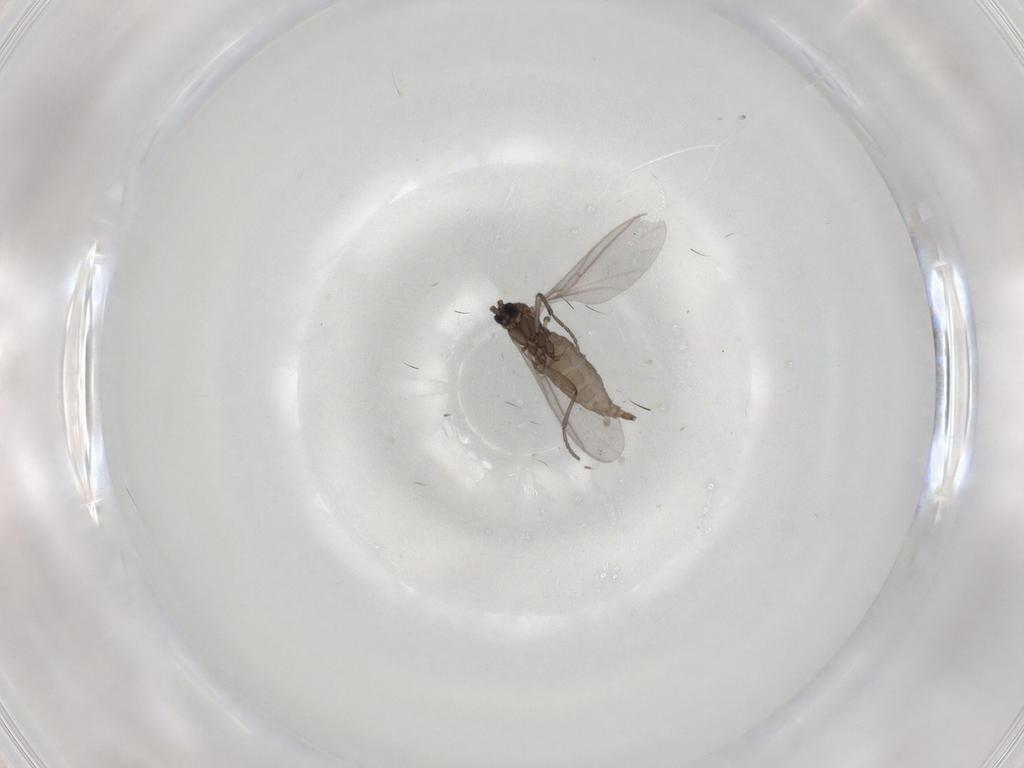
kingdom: Animalia
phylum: Arthropoda
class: Insecta
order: Diptera
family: Sciaridae
